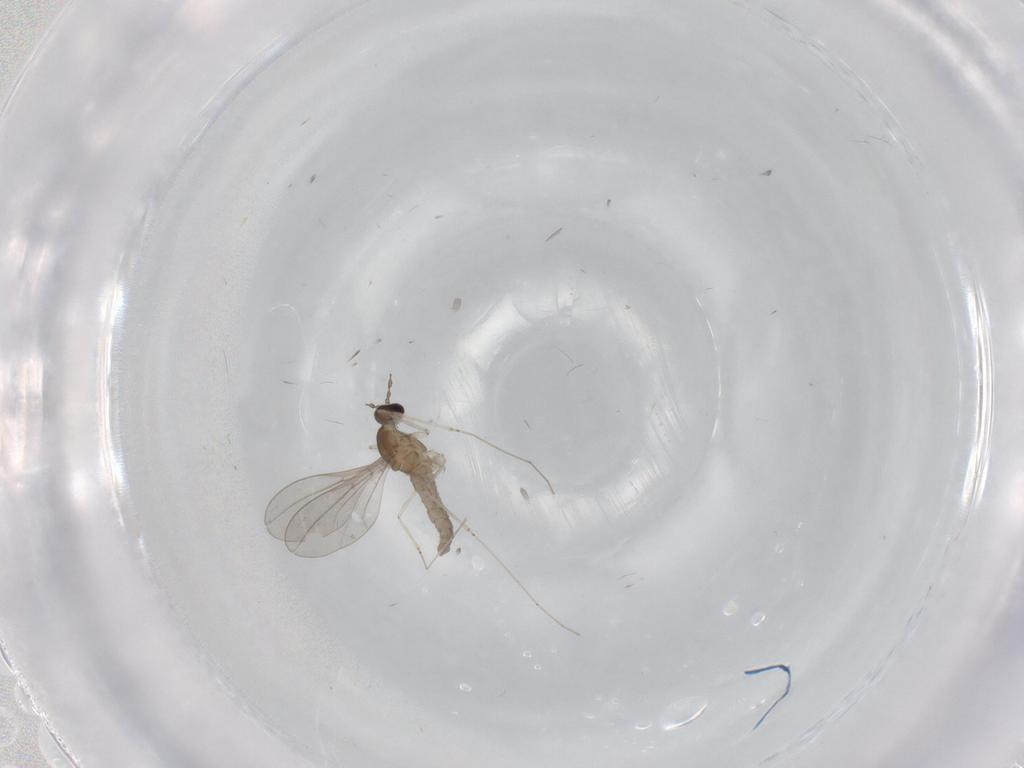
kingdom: Animalia
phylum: Arthropoda
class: Insecta
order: Diptera
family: Cecidomyiidae
